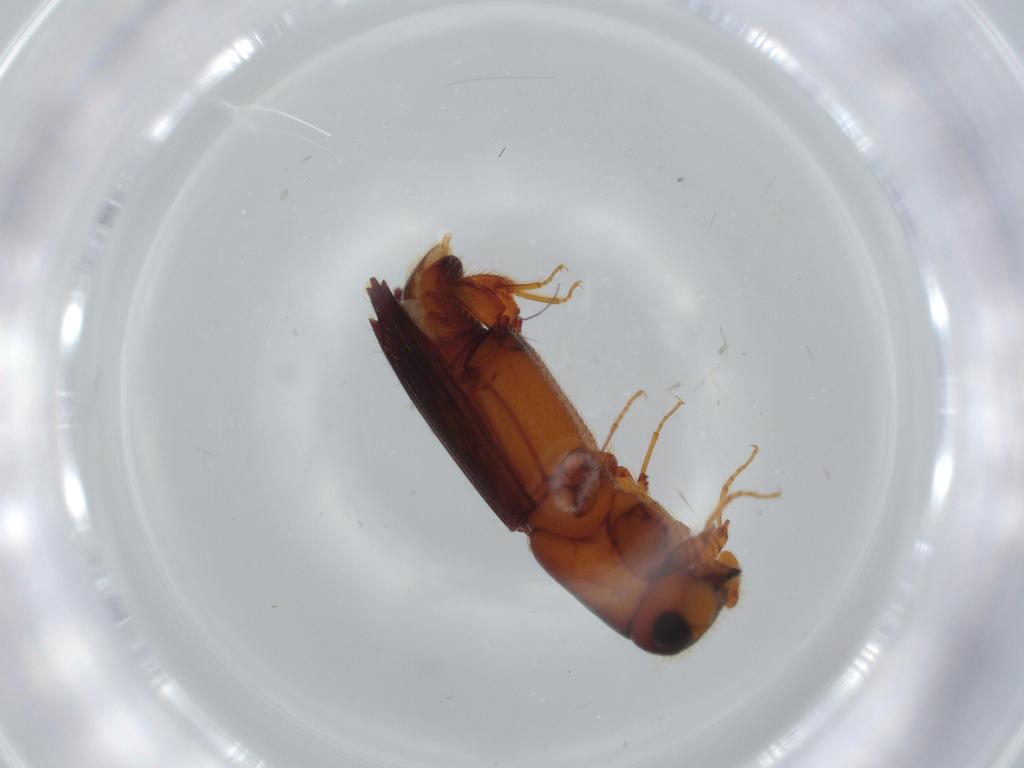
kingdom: Animalia
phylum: Arthropoda
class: Insecta
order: Coleoptera
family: Curculionidae
